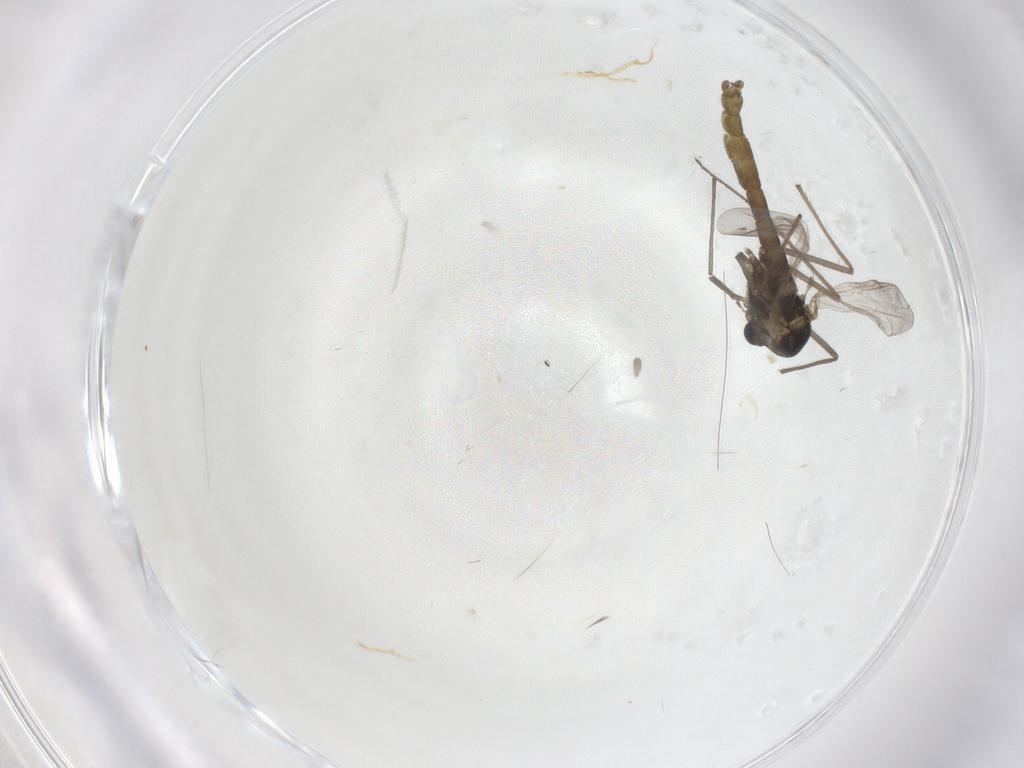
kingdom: Animalia
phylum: Arthropoda
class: Insecta
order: Diptera
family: Chironomidae
